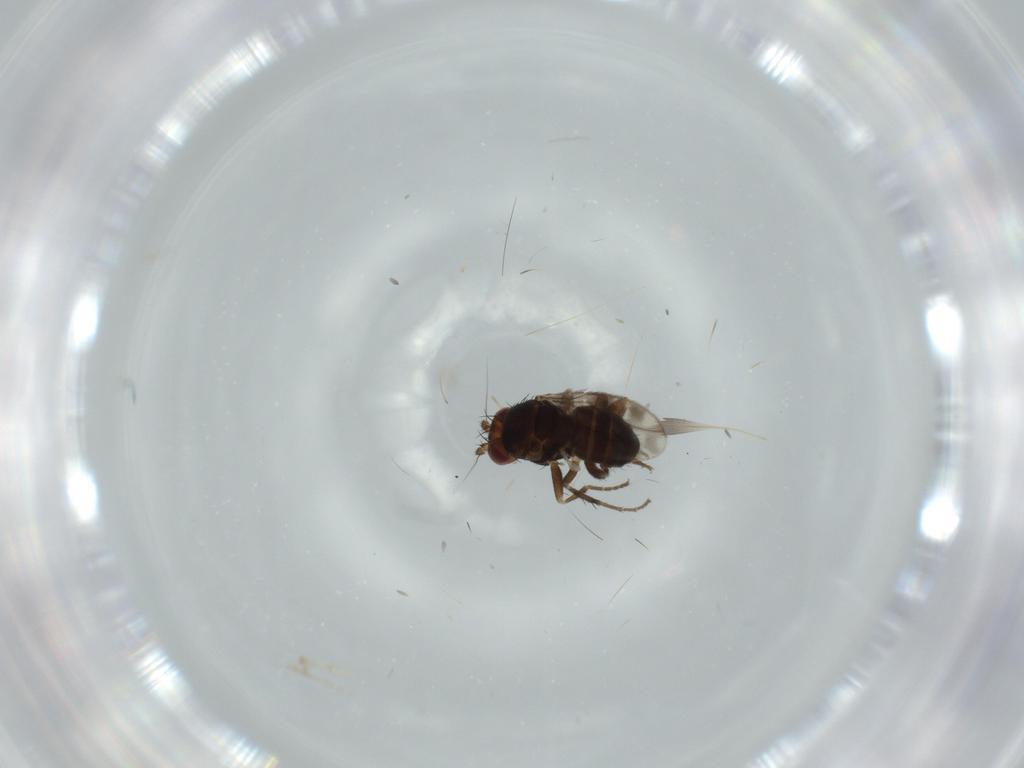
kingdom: Animalia
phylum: Arthropoda
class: Insecta
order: Diptera
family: Sphaeroceridae
